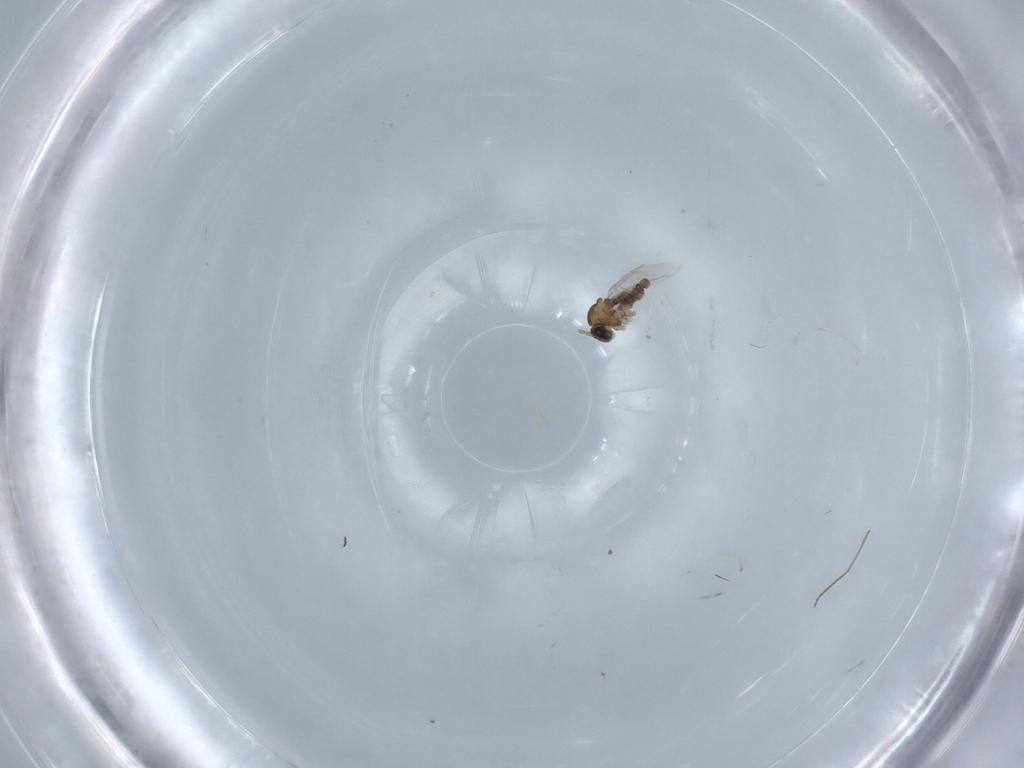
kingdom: Animalia
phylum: Arthropoda
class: Insecta
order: Diptera
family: Cecidomyiidae
